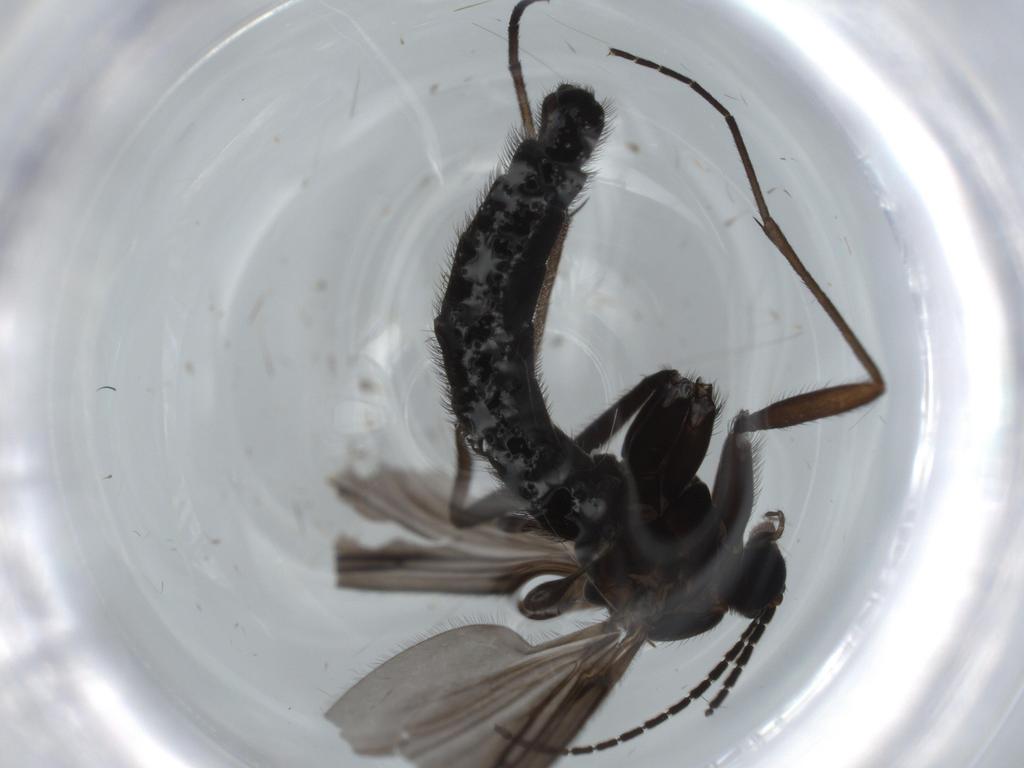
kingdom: Animalia
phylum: Arthropoda
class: Insecta
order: Diptera
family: Sciaridae
